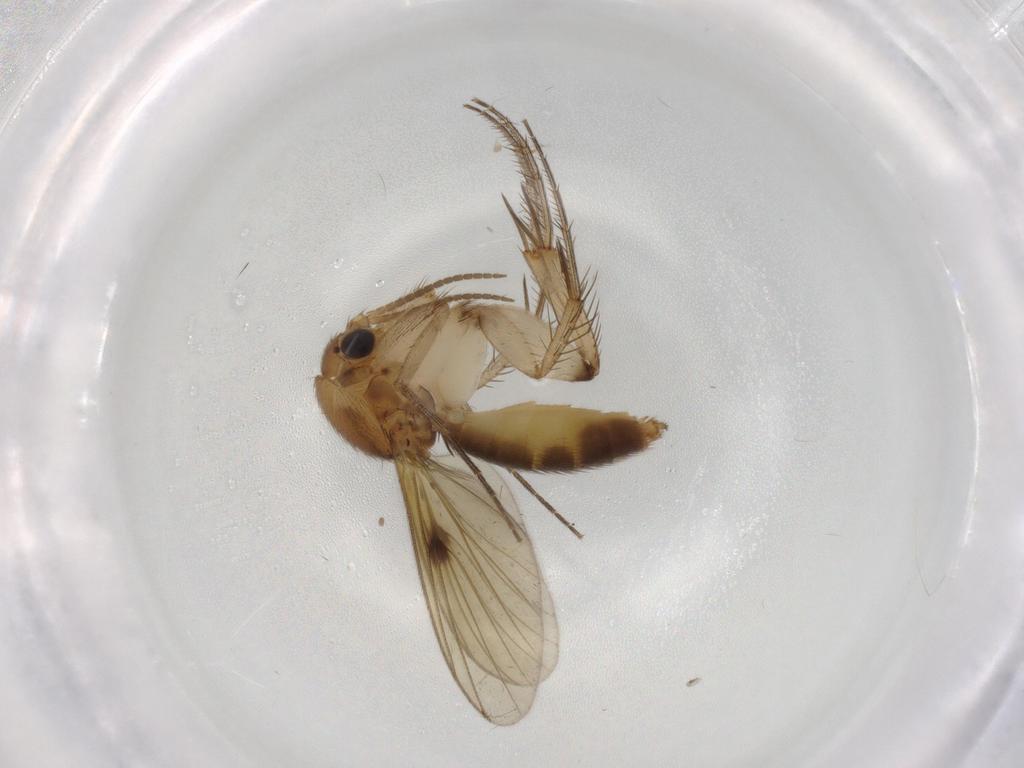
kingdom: Animalia
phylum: Arthropoda
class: Insecta
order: Diptera
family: Mycetophilidae
